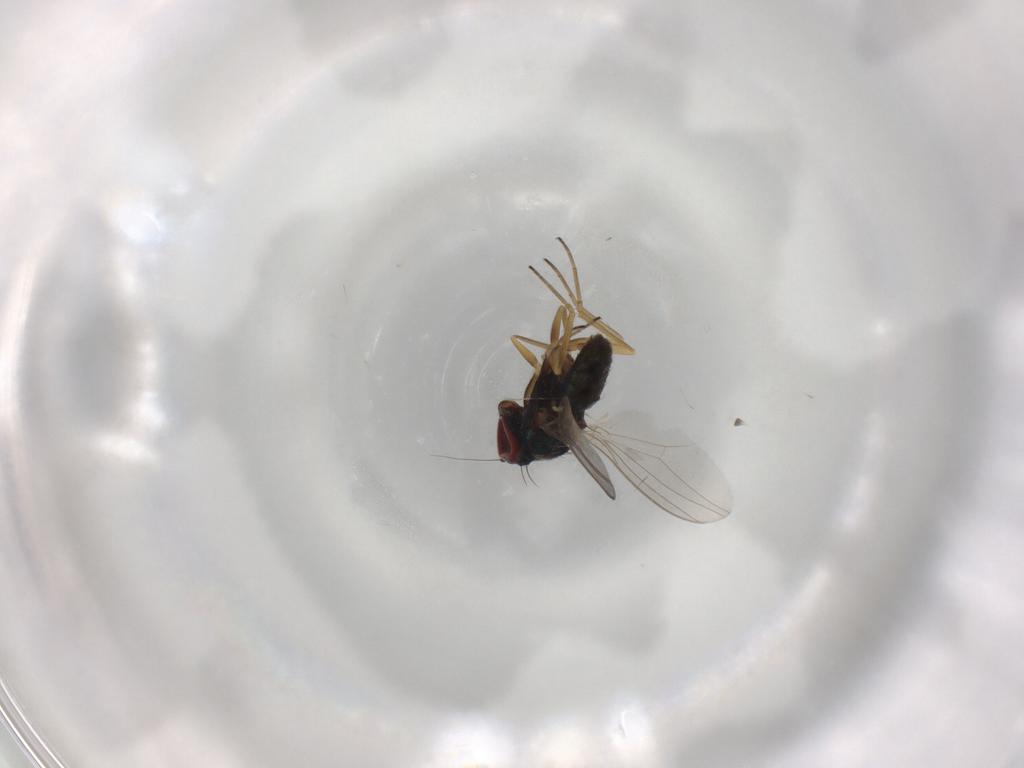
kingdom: Animalia
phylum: Arthropoda
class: Insecta
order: Diptera
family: Dolichopodidae
